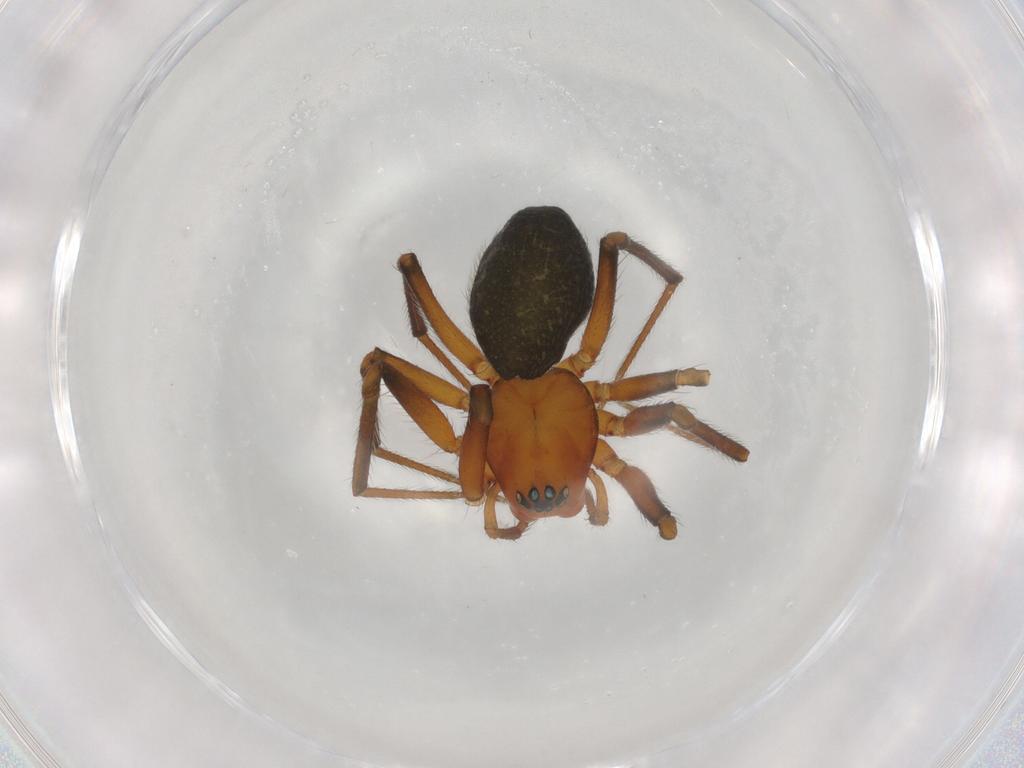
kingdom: Animalia
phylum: Arthropoda
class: Arachnida
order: Araneae
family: Linyphiidae
